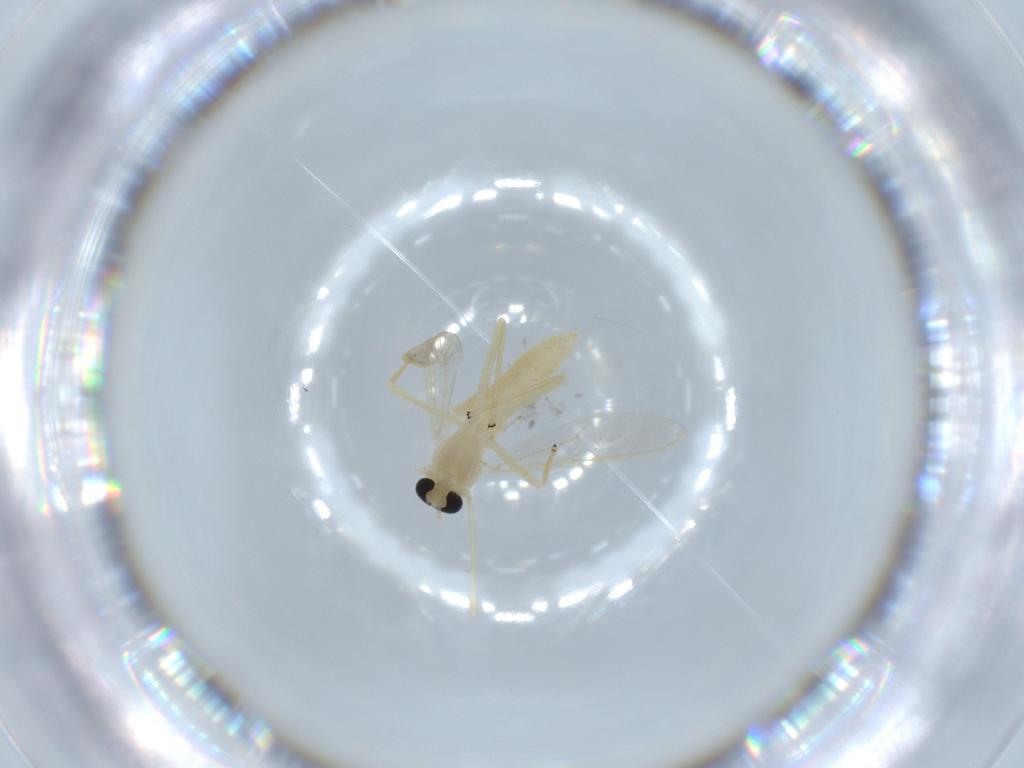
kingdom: Animalia
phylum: Arthropoda
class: Insecta
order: Diptera
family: Chironomidae
